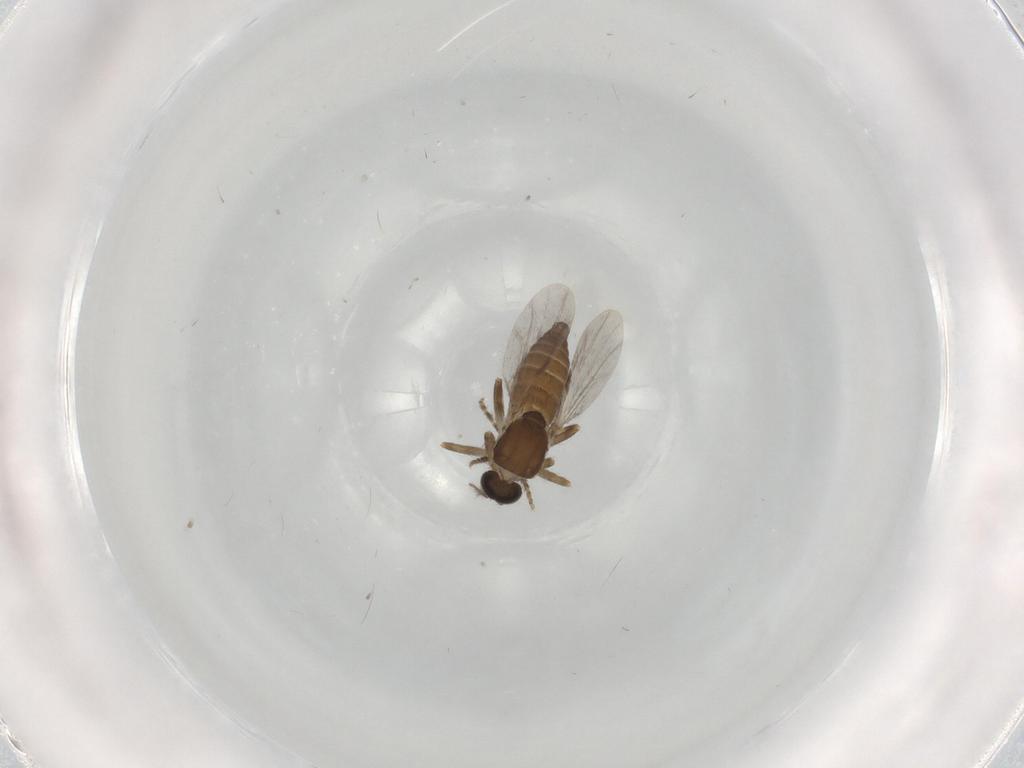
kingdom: Animalia
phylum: Arthropoda
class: Insecta
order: Diptera
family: Ceratopogonidae
